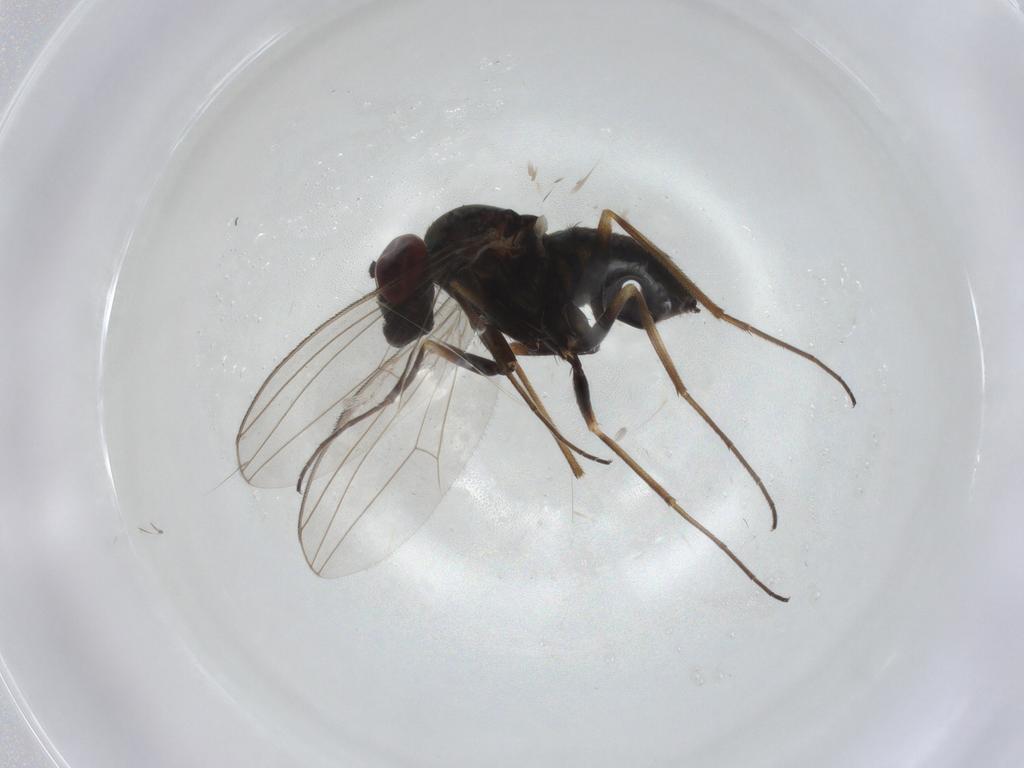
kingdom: Animalia
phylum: Arthropoda
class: Insecta
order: Diptera
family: Dolichopodidae
